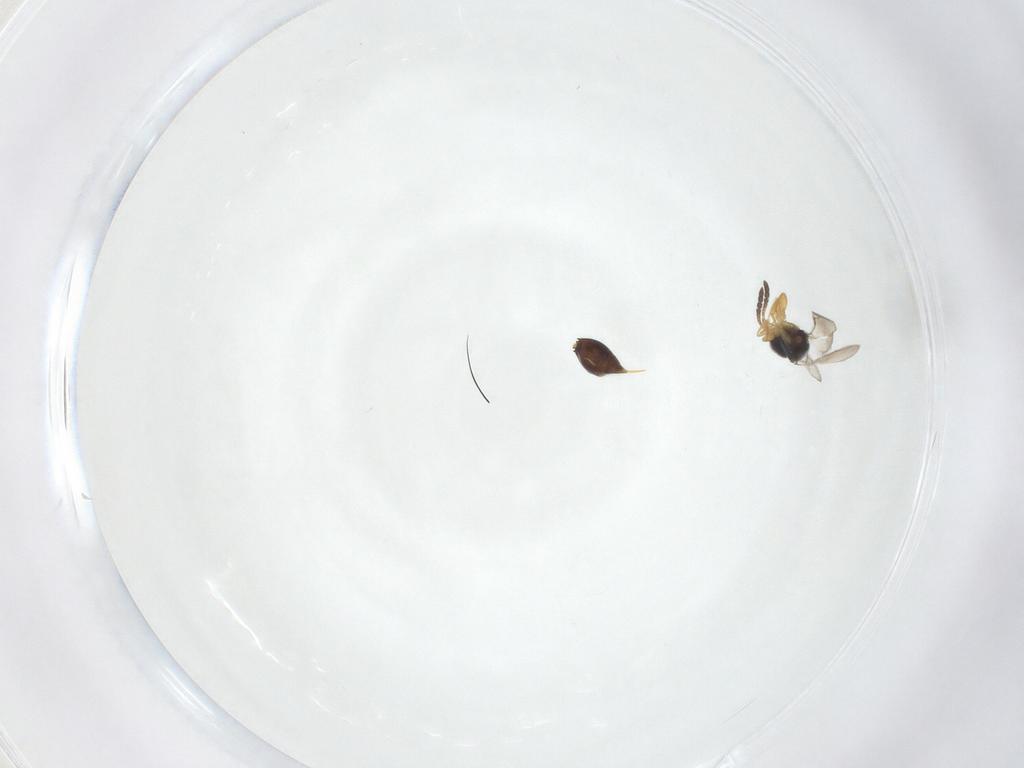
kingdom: Animalia
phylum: Arthropoda
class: Insecta
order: Hymenoptera
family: Ceraphronidae
